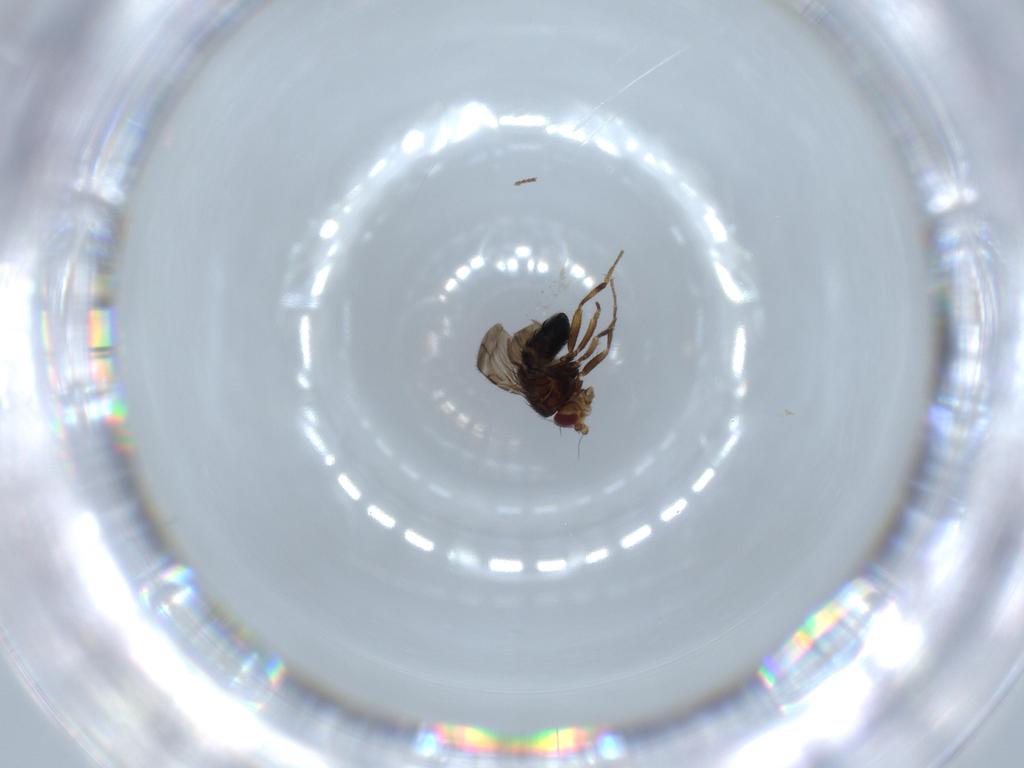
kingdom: Animalia
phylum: Arthropoda
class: Insecta
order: Diptera
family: Sphaeroceridae
